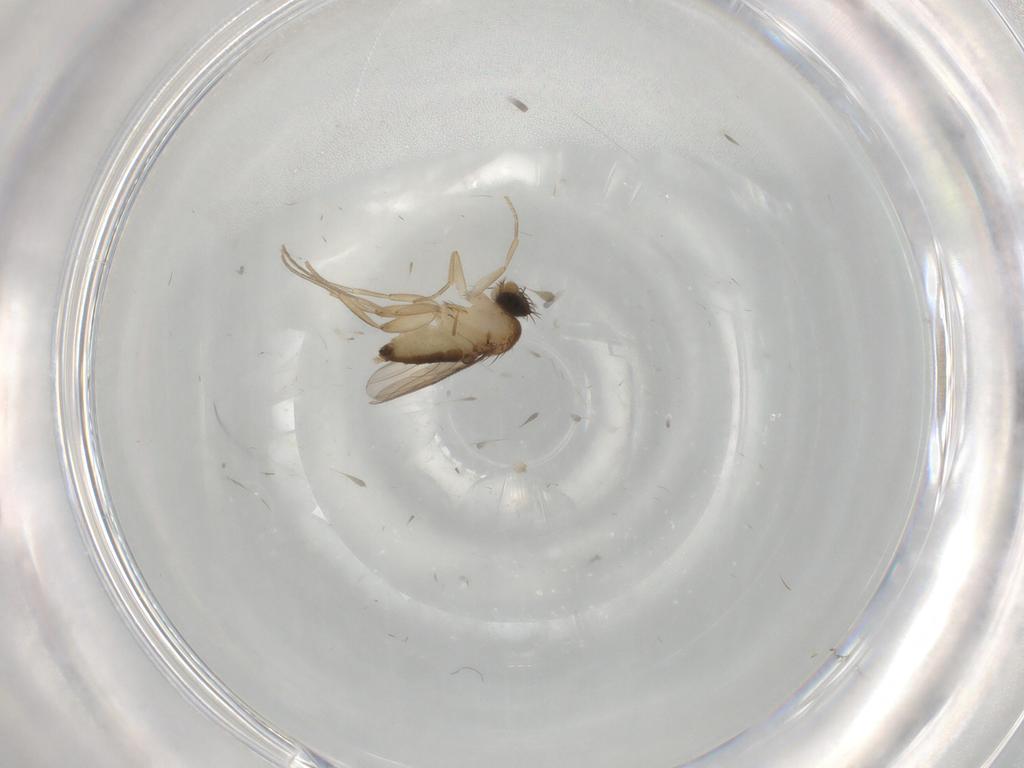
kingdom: Animalia
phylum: Arthropoda
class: Insecta
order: Diptera
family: Phoridae
